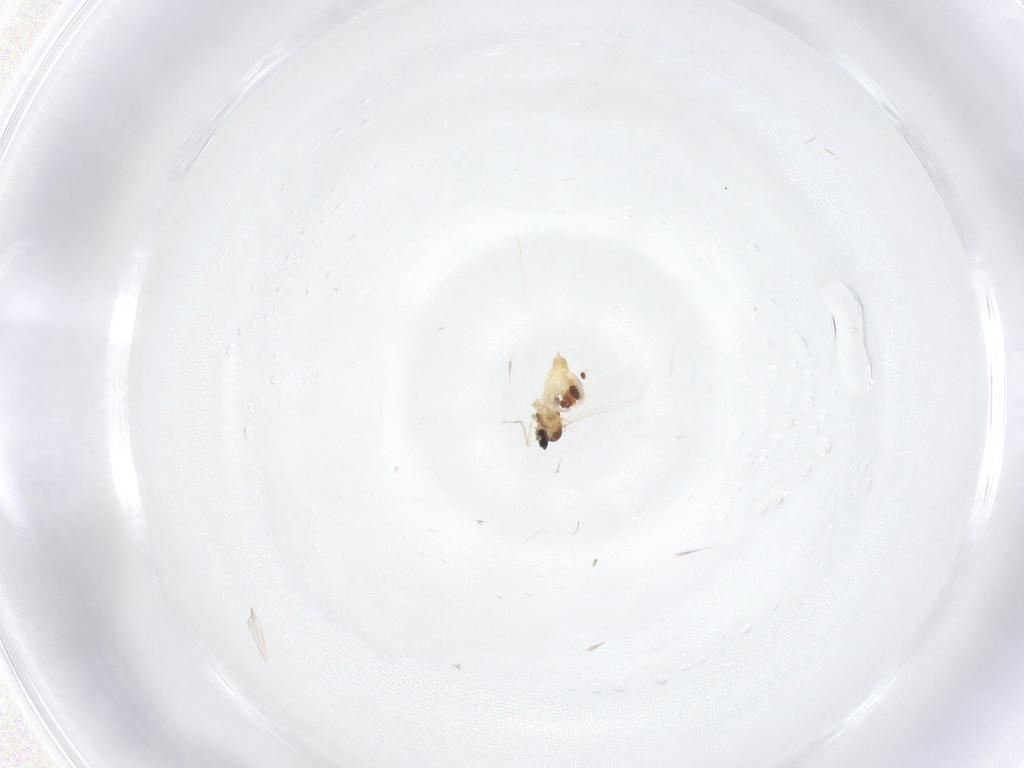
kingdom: Animalia
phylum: Arthropoda
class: Insecta
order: Diptera
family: Cecidomyiidae
